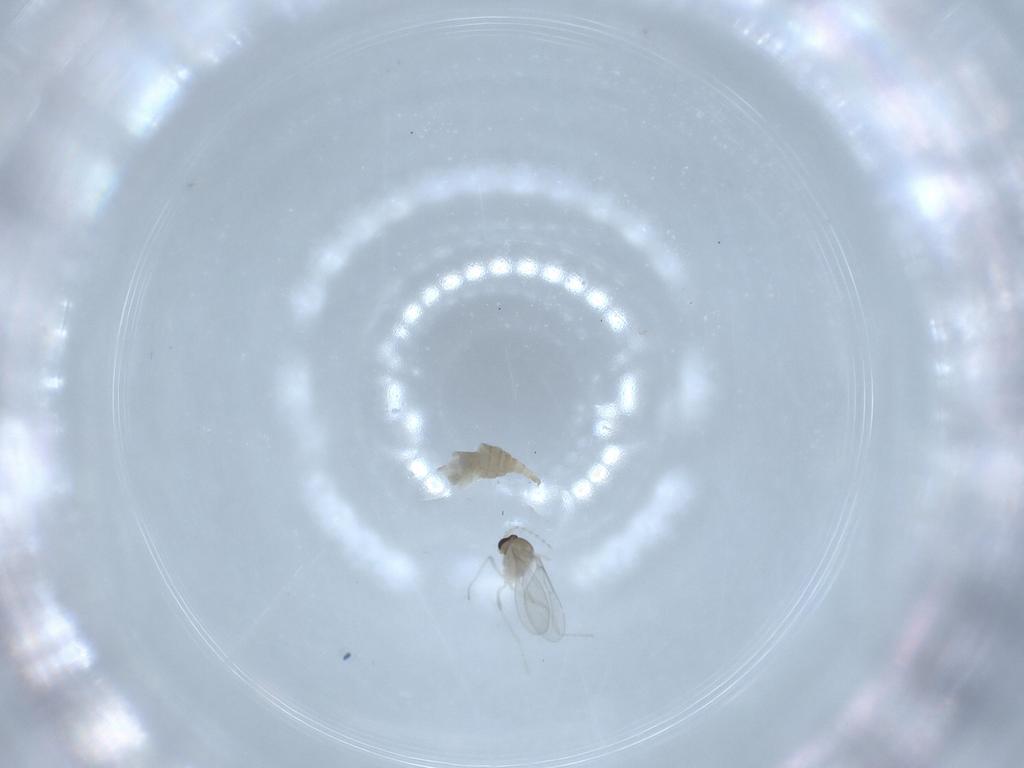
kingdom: Animalia
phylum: Arthropoda
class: Insecta
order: Diptera
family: Cecidomyiidae
